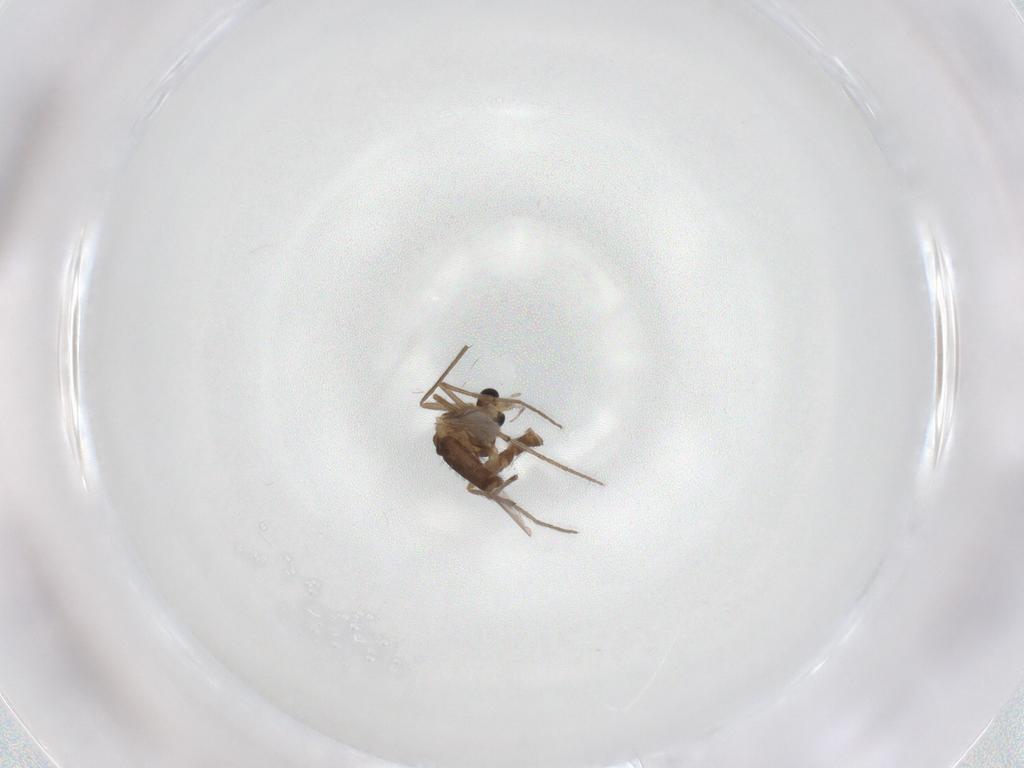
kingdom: Animalia
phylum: Arthropoda
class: Insecta
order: Diptera
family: Chironomidae
